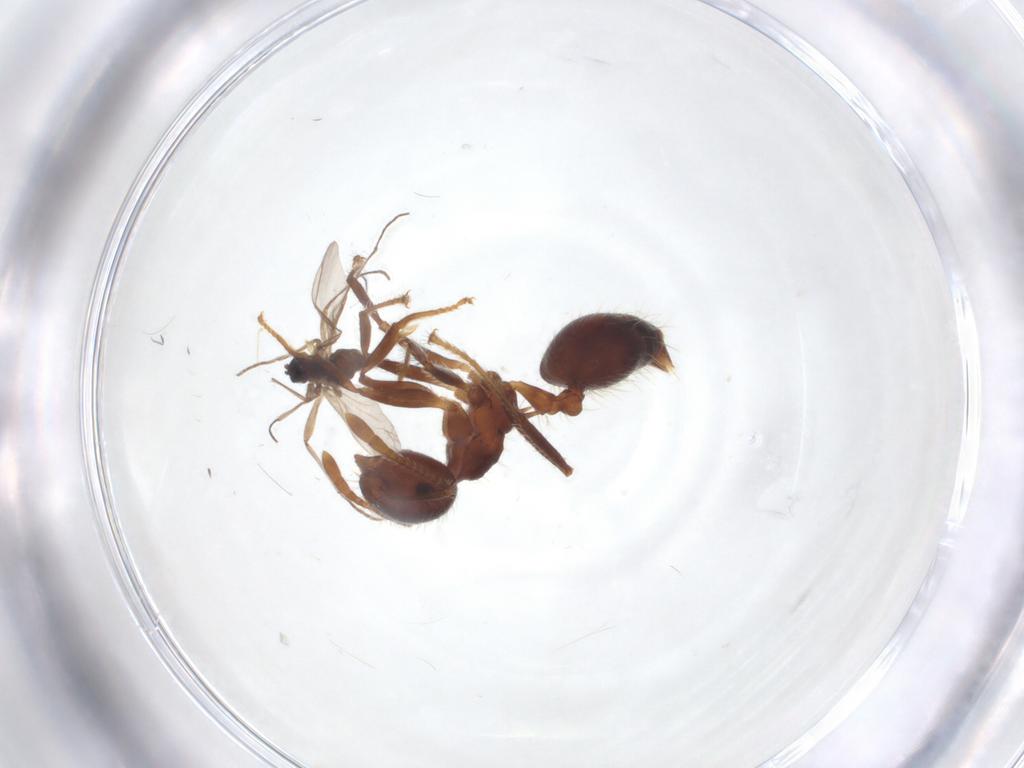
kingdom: Animalia
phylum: Arthropoda
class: Insecta
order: Diptera
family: Sciaridae
